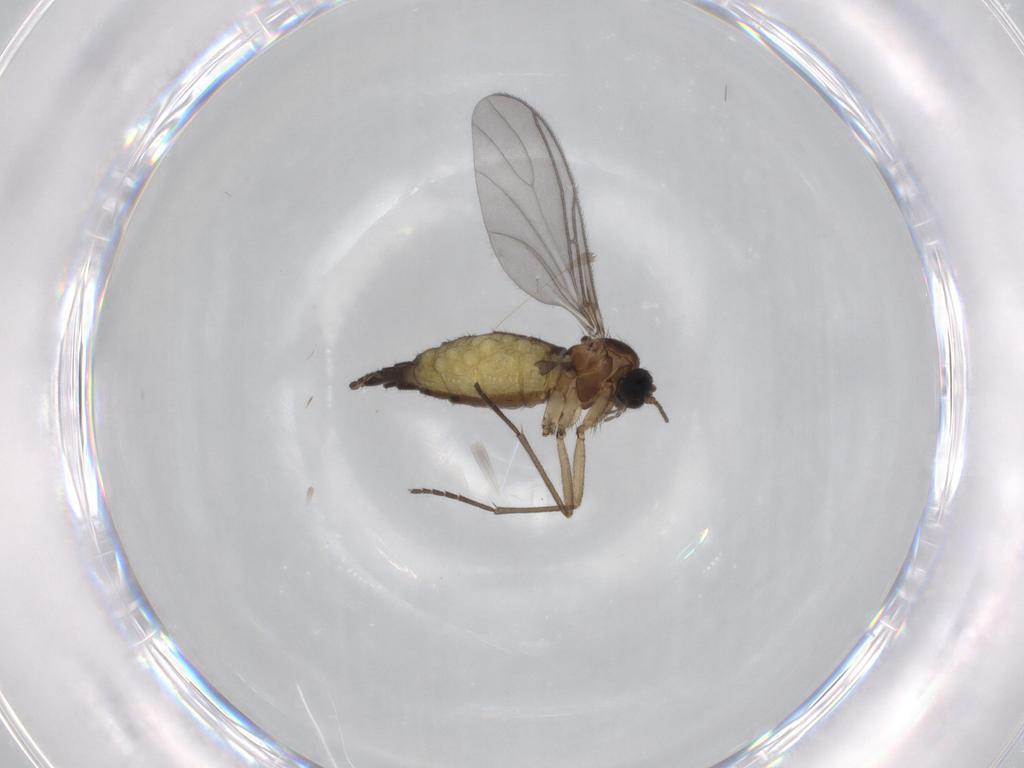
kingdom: Animalia
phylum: Arthropoda
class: Insecta
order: Diptera
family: Sciaridae
